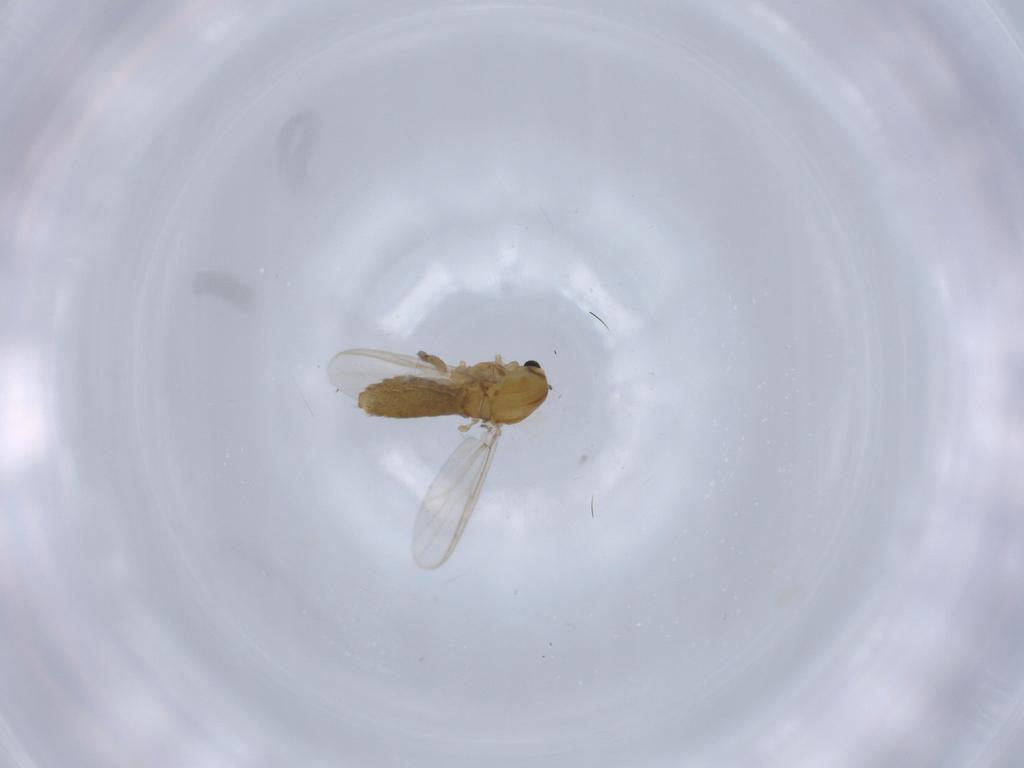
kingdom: Animalia
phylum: Arthropoda
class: Insecta
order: Diptera
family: Chironomidae
